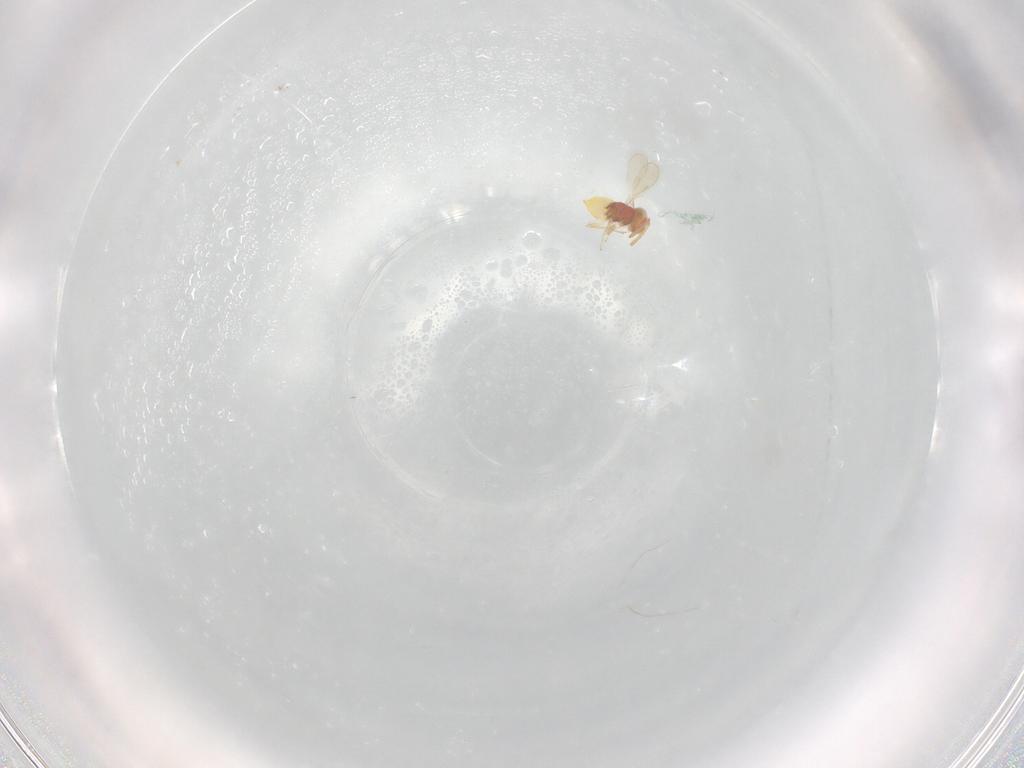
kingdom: Animalia
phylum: Arthropoda
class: Insecta
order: Hymenoptera
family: Aphelinidae
